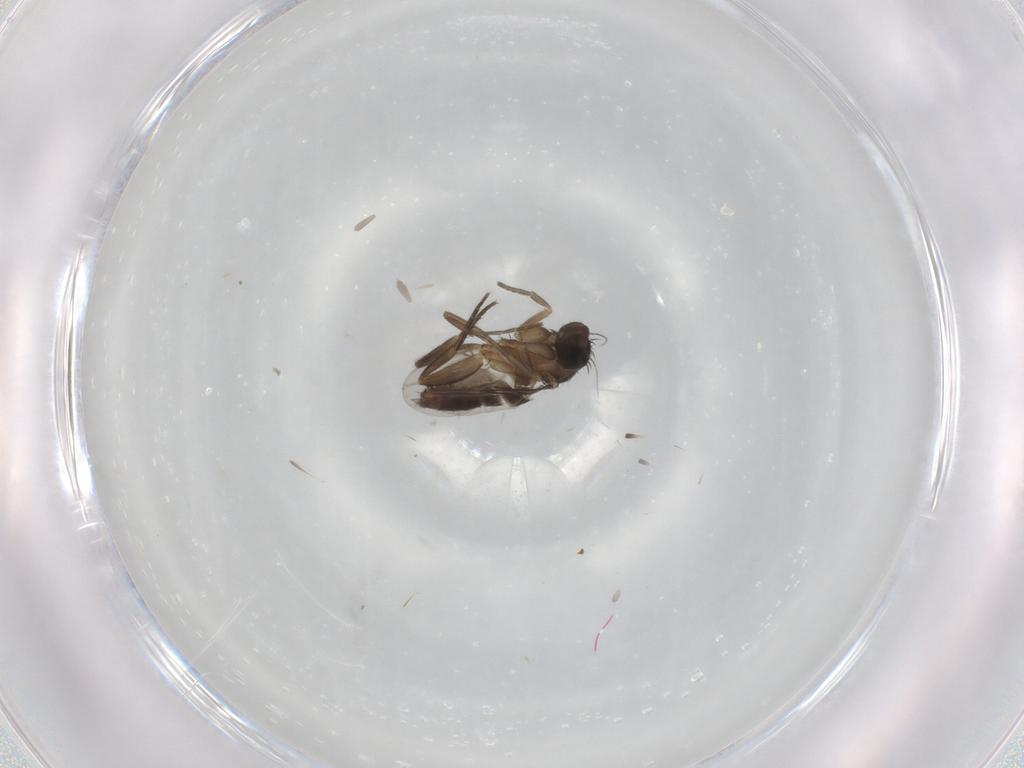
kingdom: Animalia
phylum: Arthropoda
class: Insecta
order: Diptera
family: Phoridae
